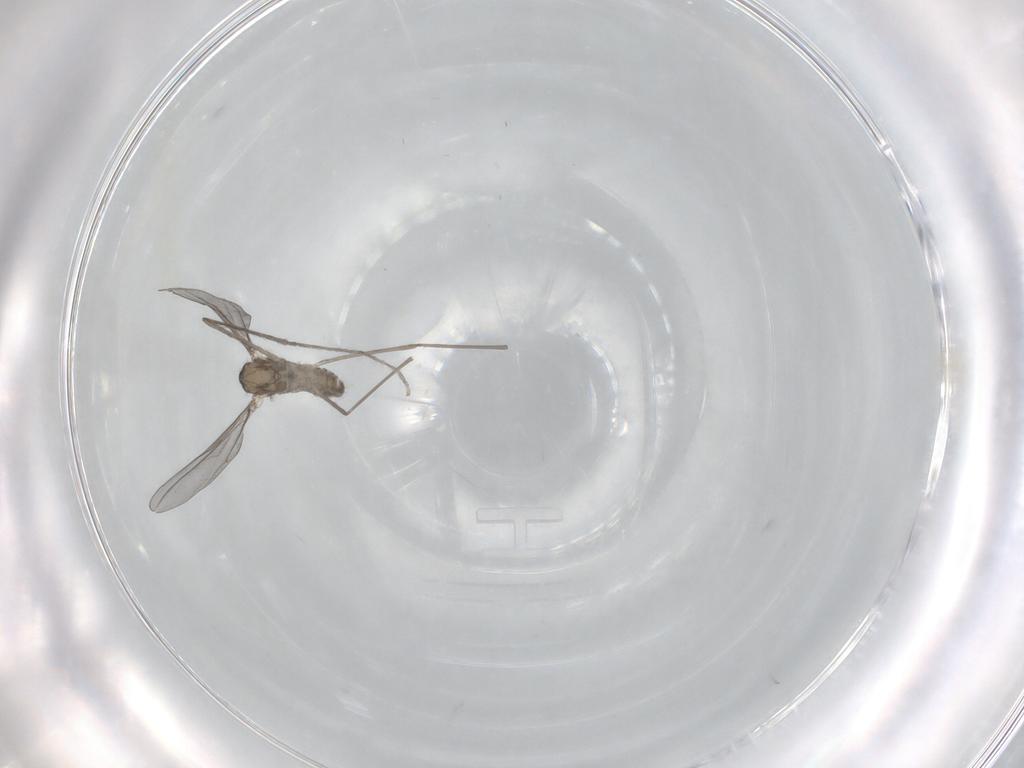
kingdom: Animalia
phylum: Arthropoda
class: Insecta
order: Diptera
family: Cecidomyiidae
